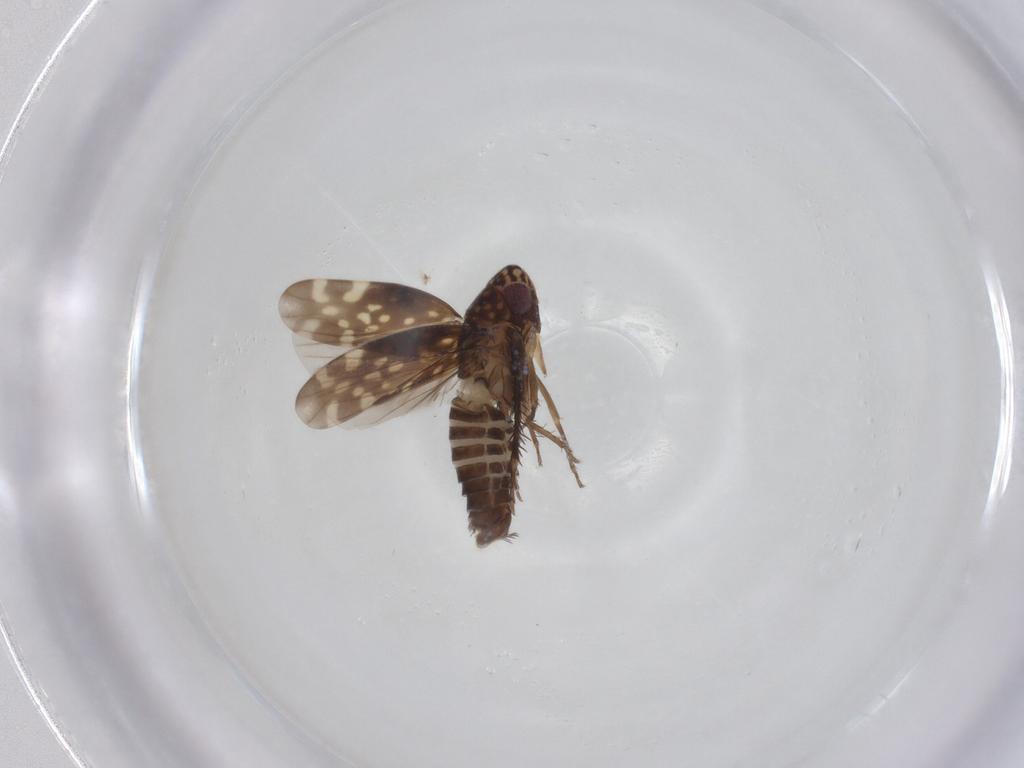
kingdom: Animalia
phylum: Arthropoda
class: Insecta
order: Hemiptera
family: Cicadellidae
